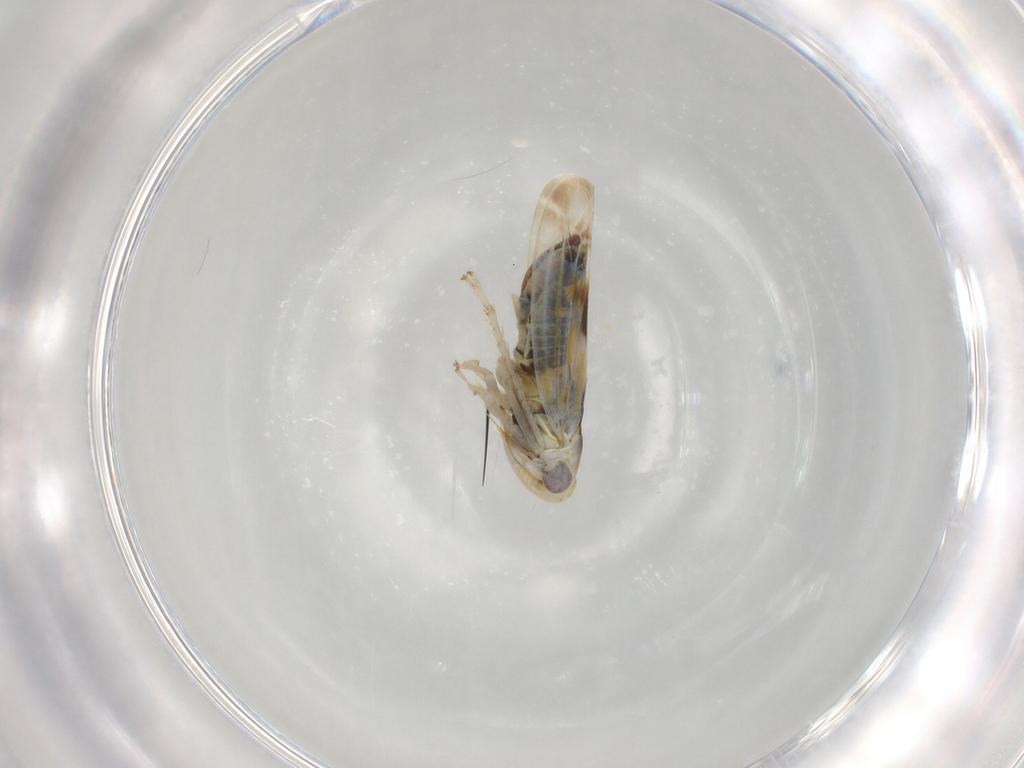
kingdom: Animalia
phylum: Arthropoda
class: Insecta
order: Hemiptera
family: Cicadellidae
